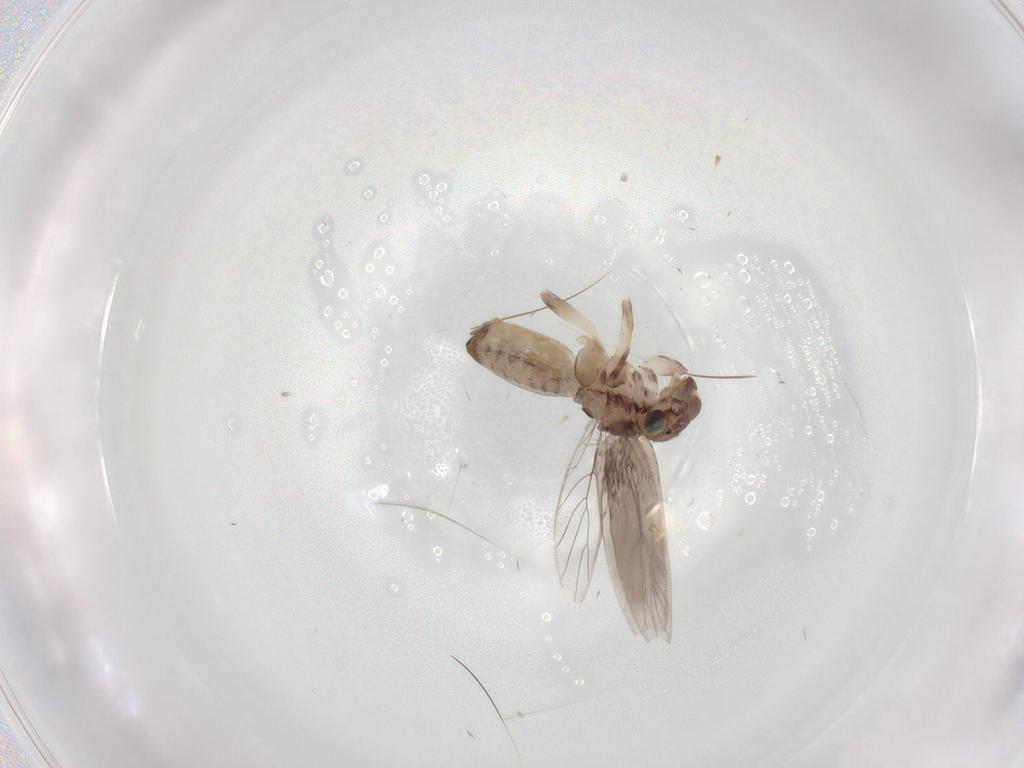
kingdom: Animalia
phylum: Arthropoda
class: Insecta
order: Psocodea
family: Lepidopsocidae
